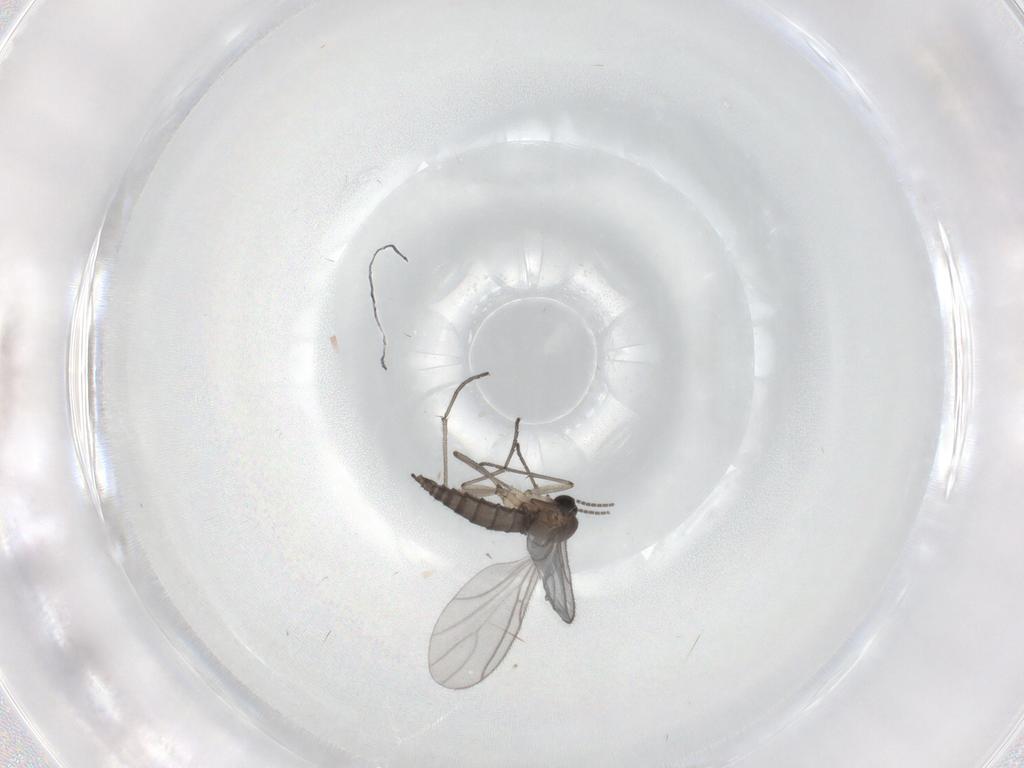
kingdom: Animalia
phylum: Arthropoda
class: Insecta
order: Diptera
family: Sciaridae
